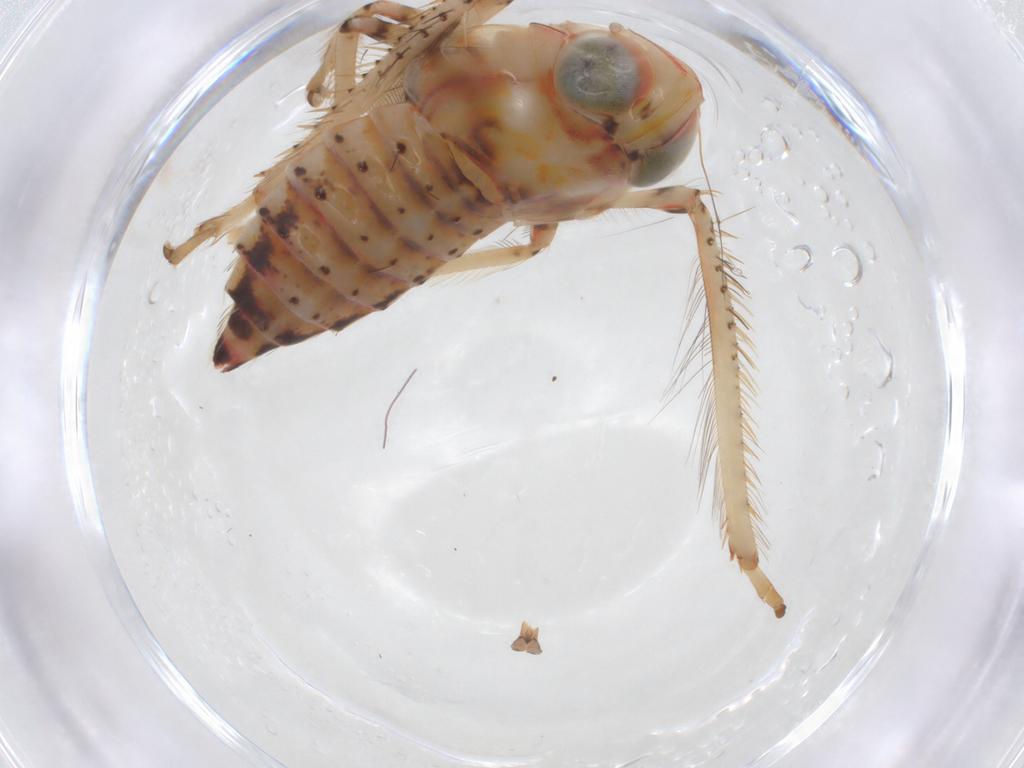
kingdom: Animalia
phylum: Arthropoda
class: Insecta
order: Hemiptera
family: Cicadellidae
